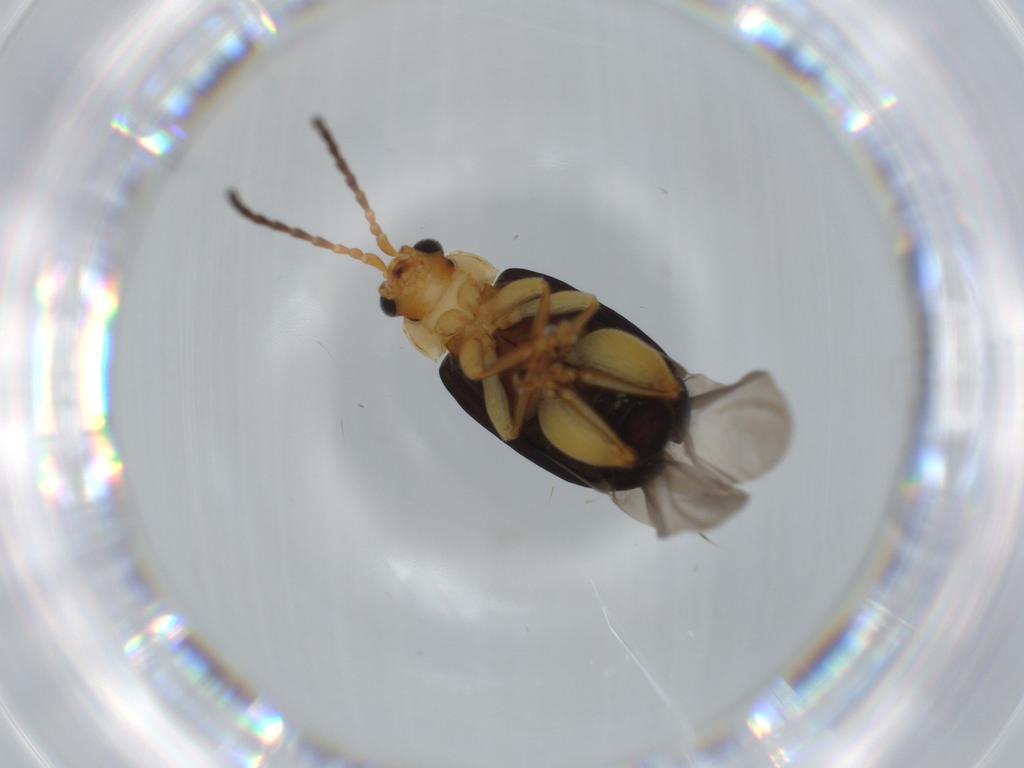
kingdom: Animalia
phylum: Arthropoda
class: Insecta
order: Coleoptera
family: Chrysomelidae
